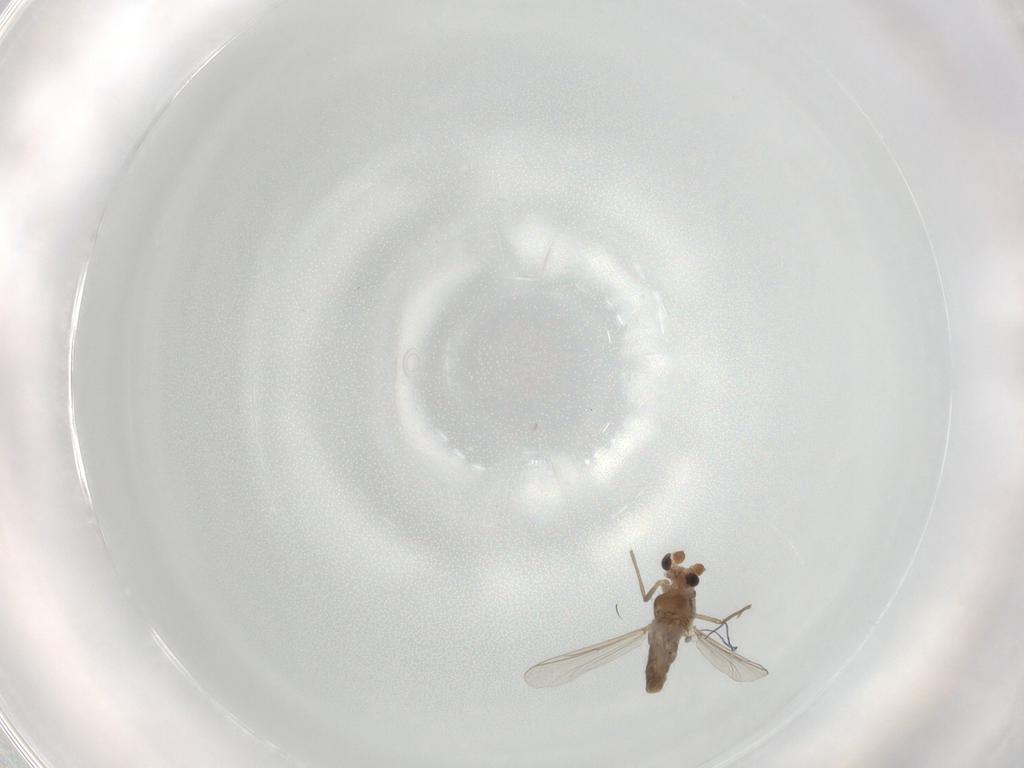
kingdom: Animalia
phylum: Arthropoda
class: Insecta
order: Diptera
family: Chironomidae
